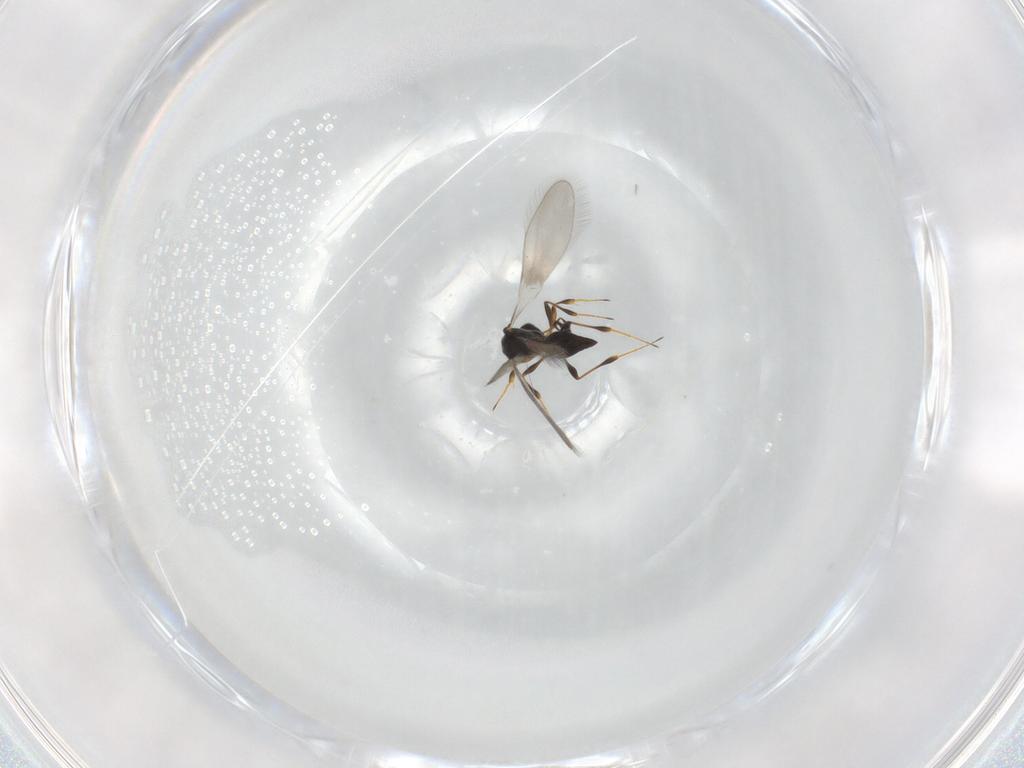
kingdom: Animalia
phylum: Arthropoda
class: Insecta
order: Hymenoptera
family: Platygastridae
